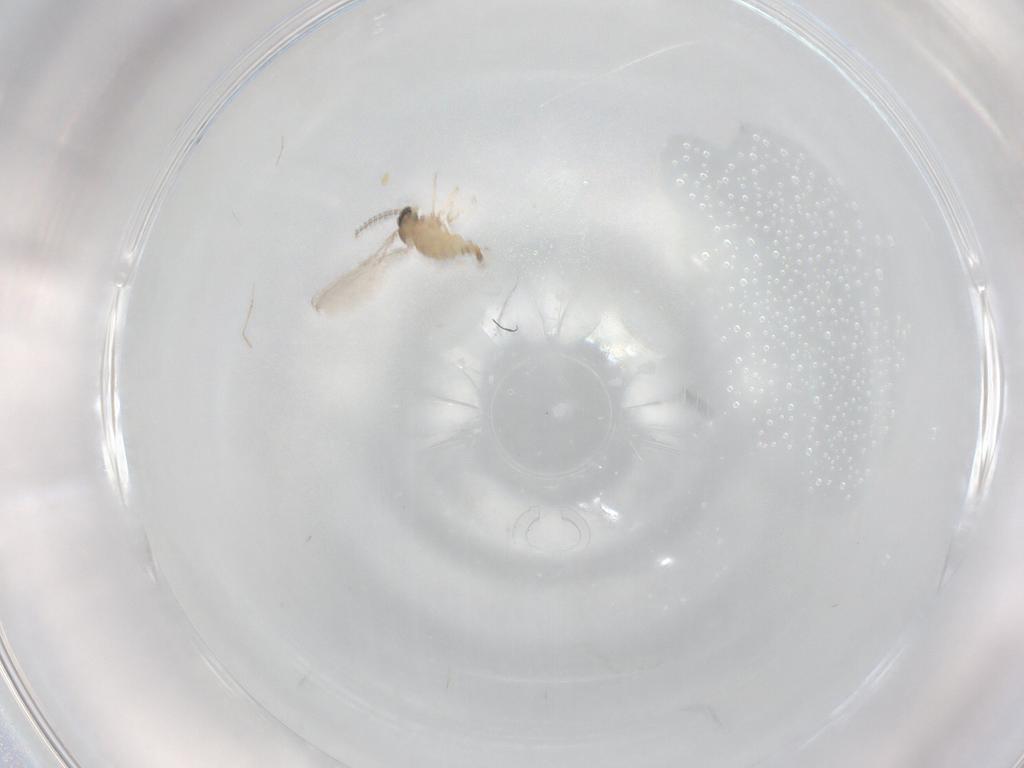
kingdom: Animalia
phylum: Arthropoda
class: Insecta
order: Diptera
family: Cecidomyiidae
